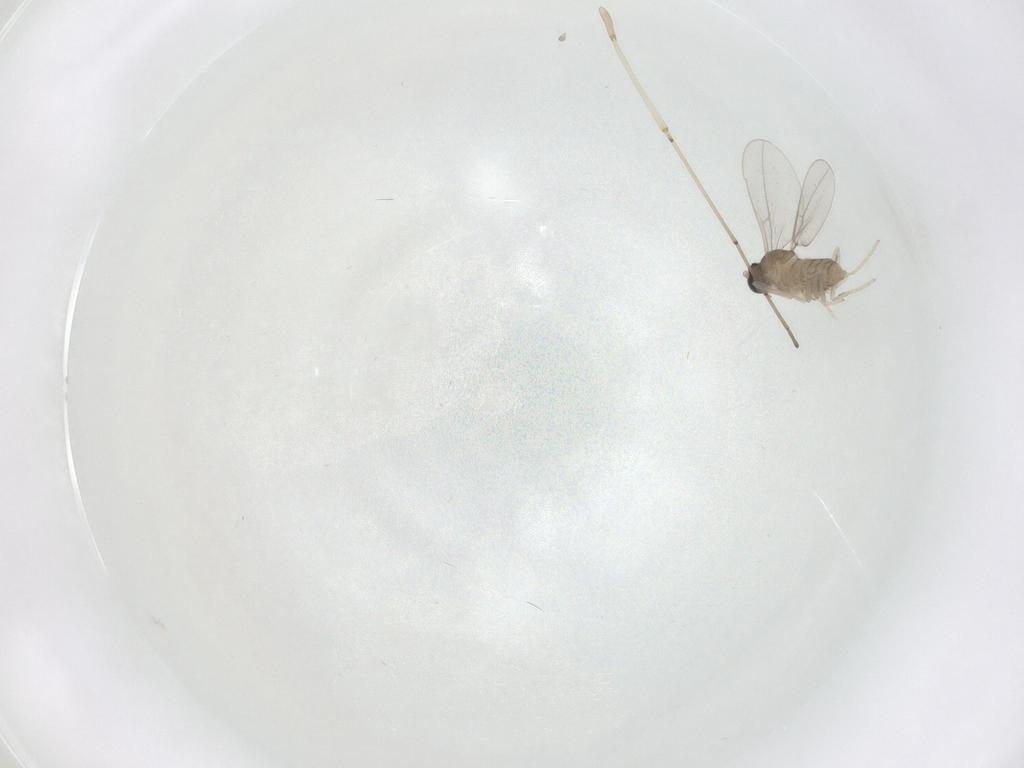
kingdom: Animalia
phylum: Arthropoda
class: Insecta
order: Diptera
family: Cecidomyiidae
